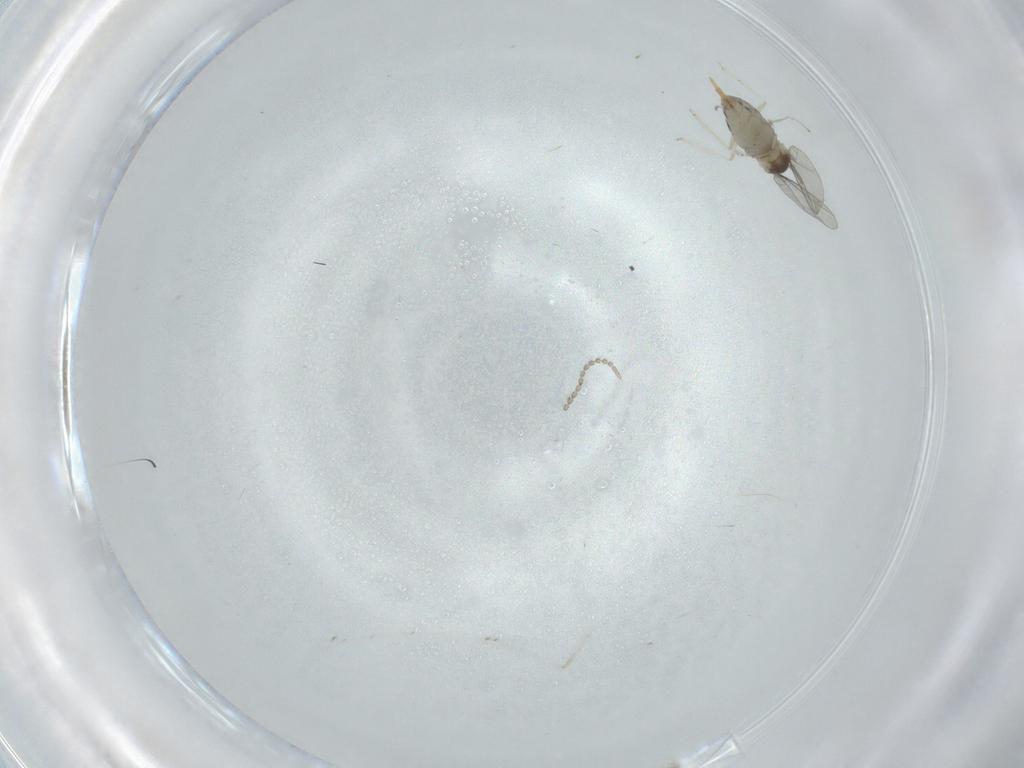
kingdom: Animalia
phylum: Arthropoda
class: Insecta
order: Diptera
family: Cecidomyiidae
